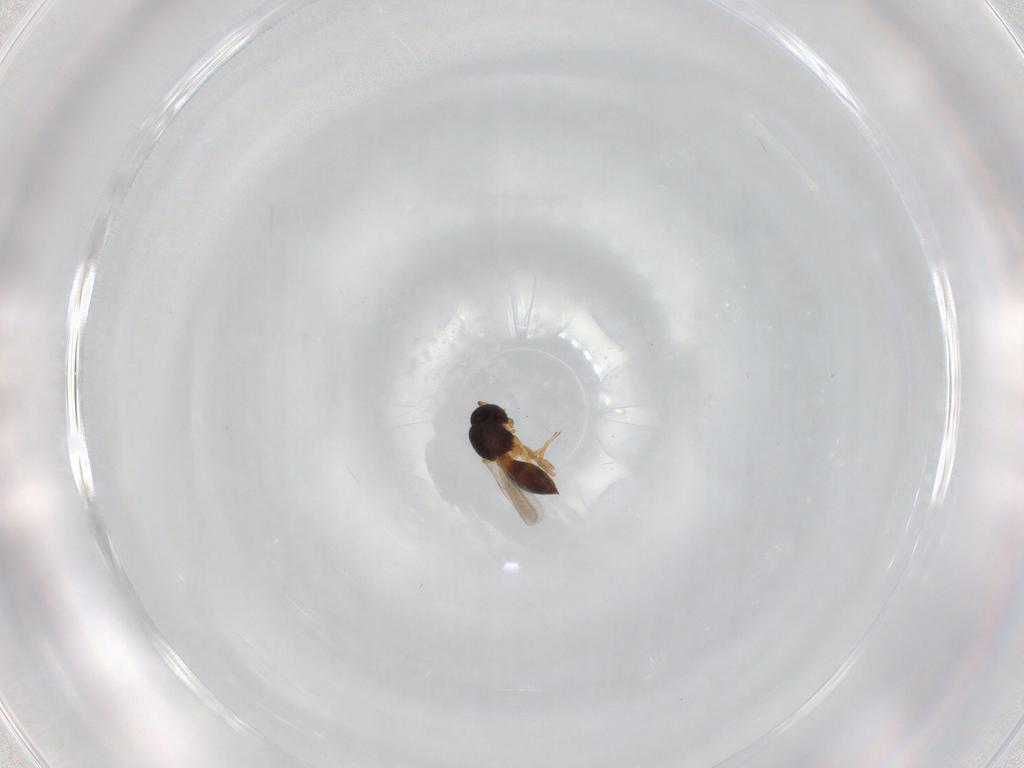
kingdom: Animalia
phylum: Arthropoda
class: Insecta
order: Hymenoptera
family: Scelionidae
